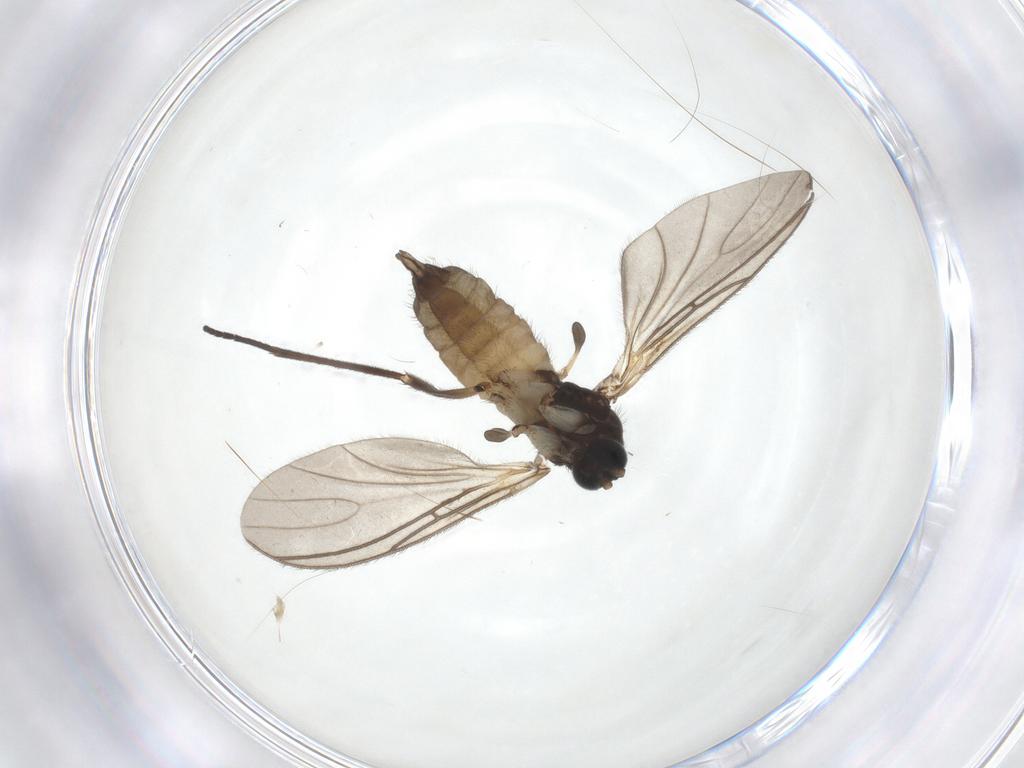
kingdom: Animalia
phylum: Arthropoda
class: Insecta
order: Diptera
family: Sciaridae
